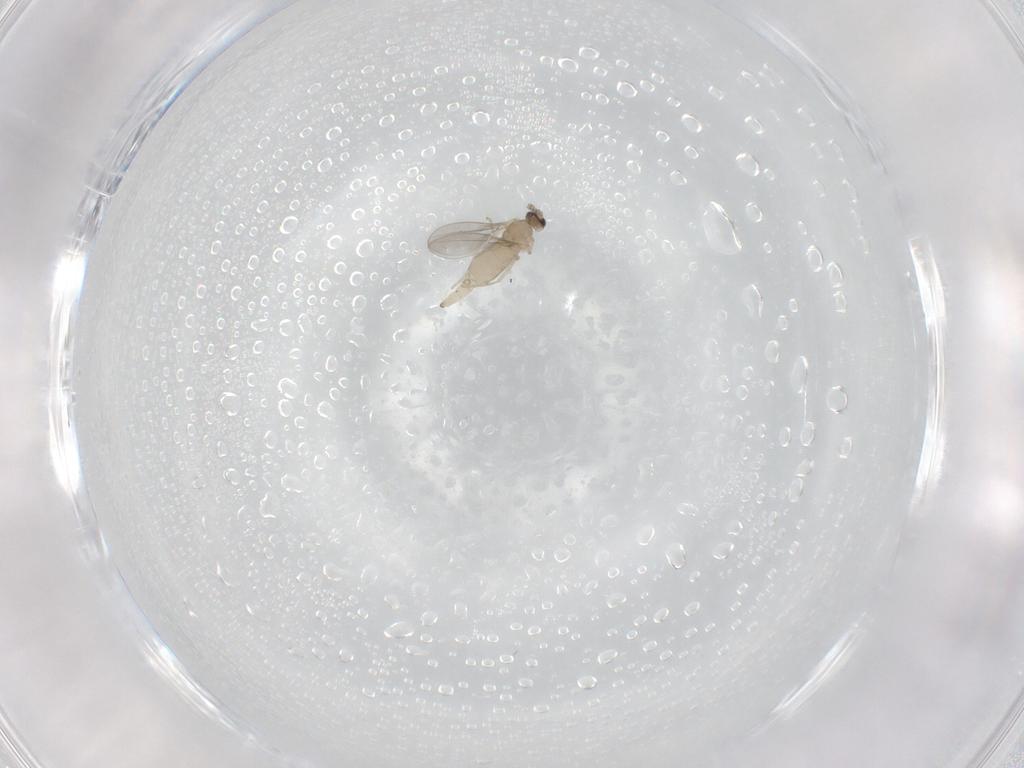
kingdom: Animalia
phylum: Arthropoda
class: Insecta
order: Diptera
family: Cecidomyiidae
